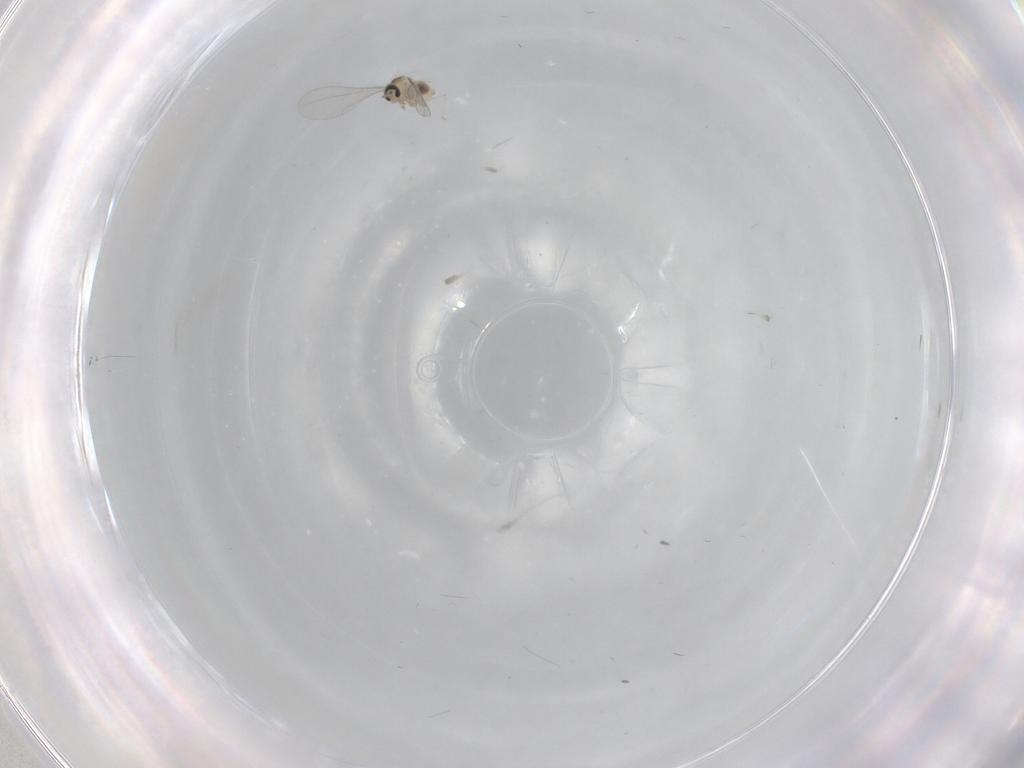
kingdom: Animalia
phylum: Arthropoda
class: Insecta
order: Diptera
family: Cecidomyiidae
